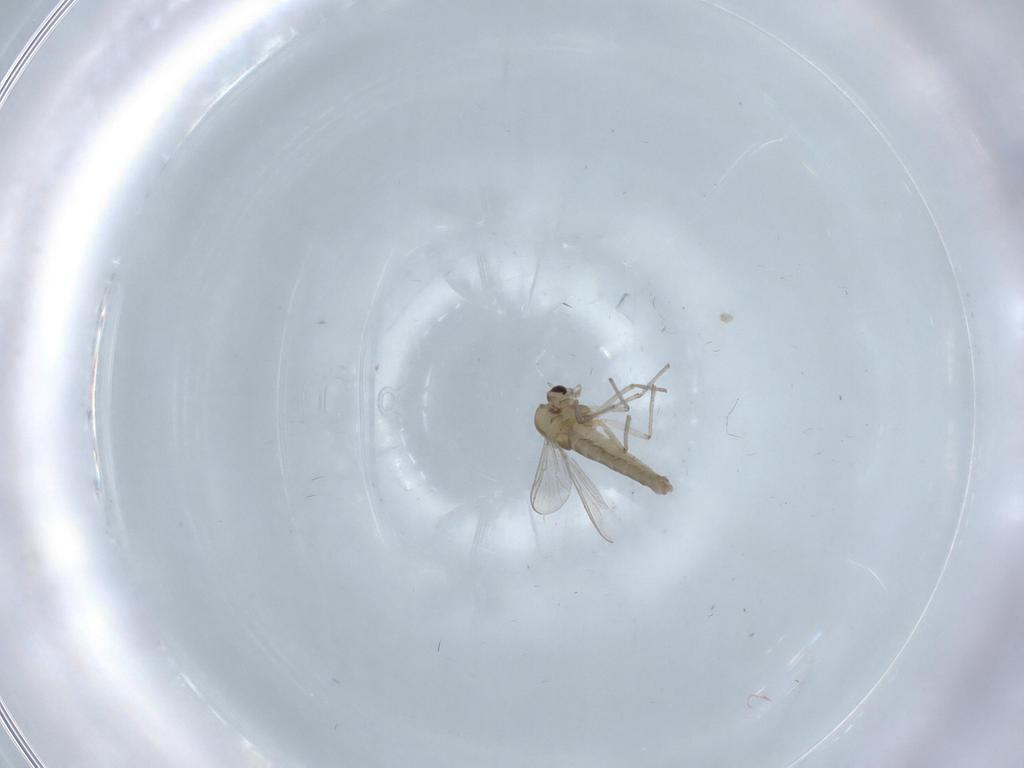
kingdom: Animalia
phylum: Arthropoda
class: Insecta
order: Diptera
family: Chironomidae
